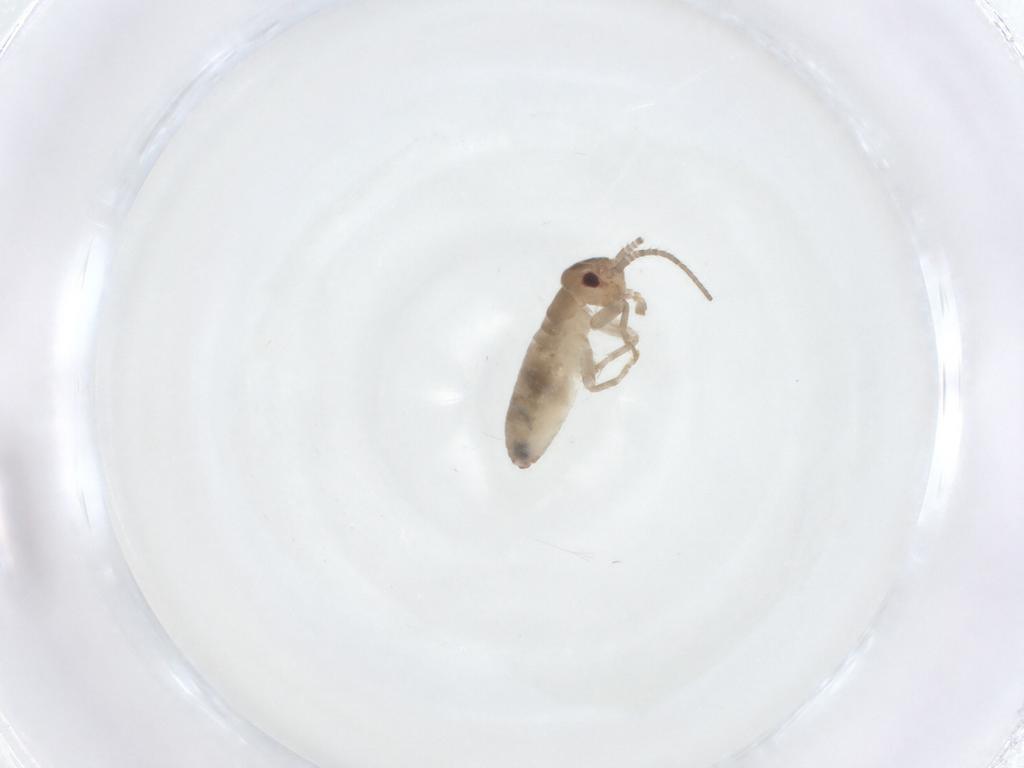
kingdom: Animalia
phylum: Arthropoda
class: Insecta
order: Orthoptera
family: Gryllidae
